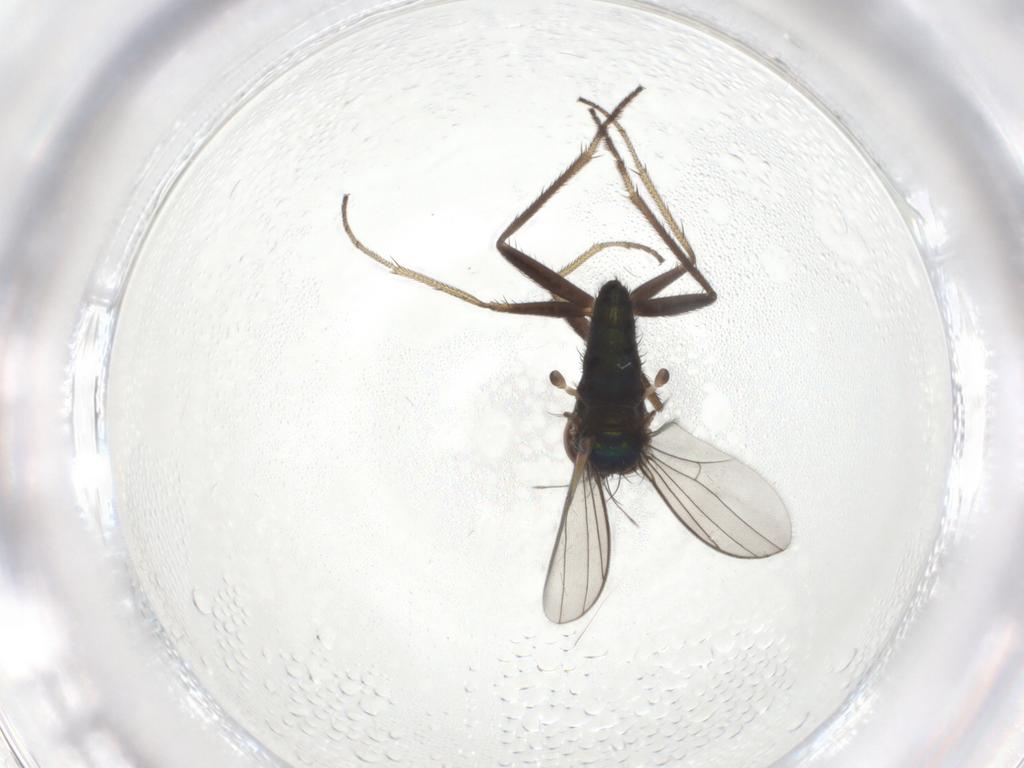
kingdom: Animalia
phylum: Arthropoda
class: Insecta
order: Diptera
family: Dolichopodidae
